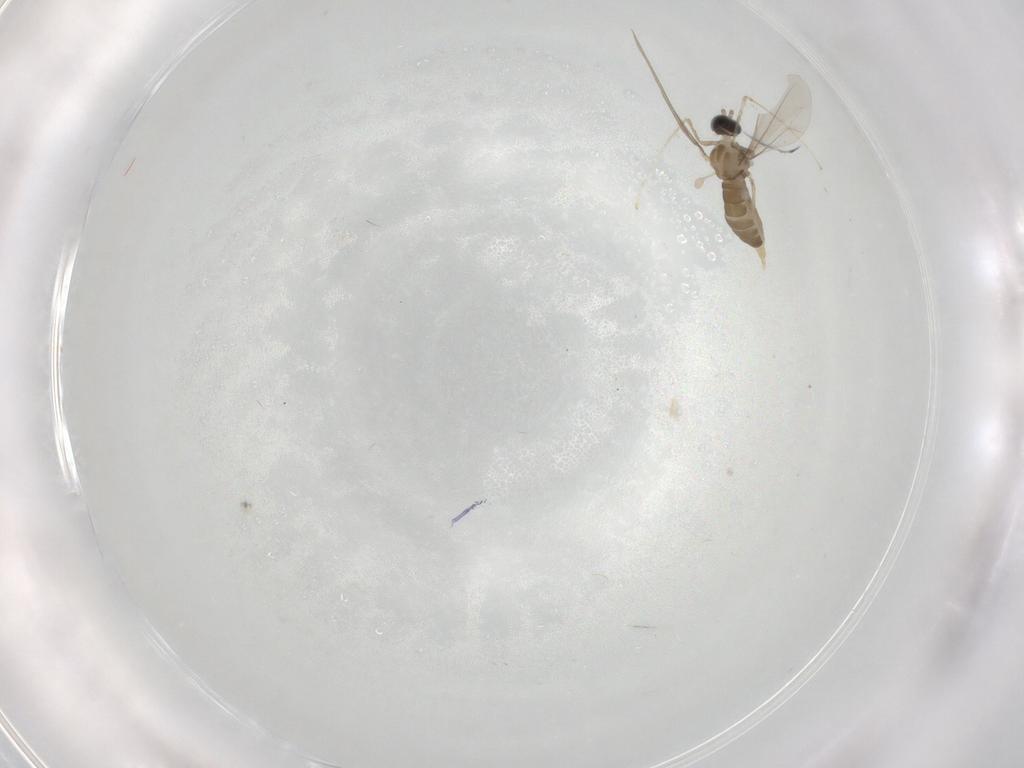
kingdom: Animalia
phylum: Arthropoda
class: Insecta
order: Diptera
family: Cecidomyiidae
